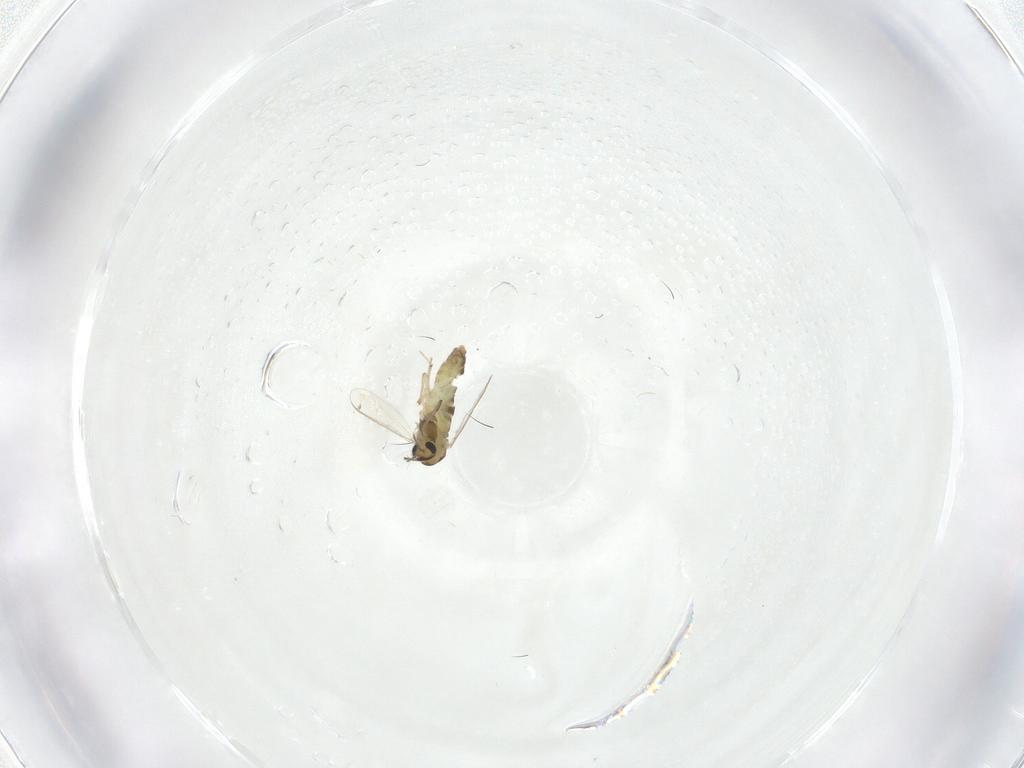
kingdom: Animalia
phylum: Arthropoda
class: Insecta
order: Diptera
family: Chironomidae
